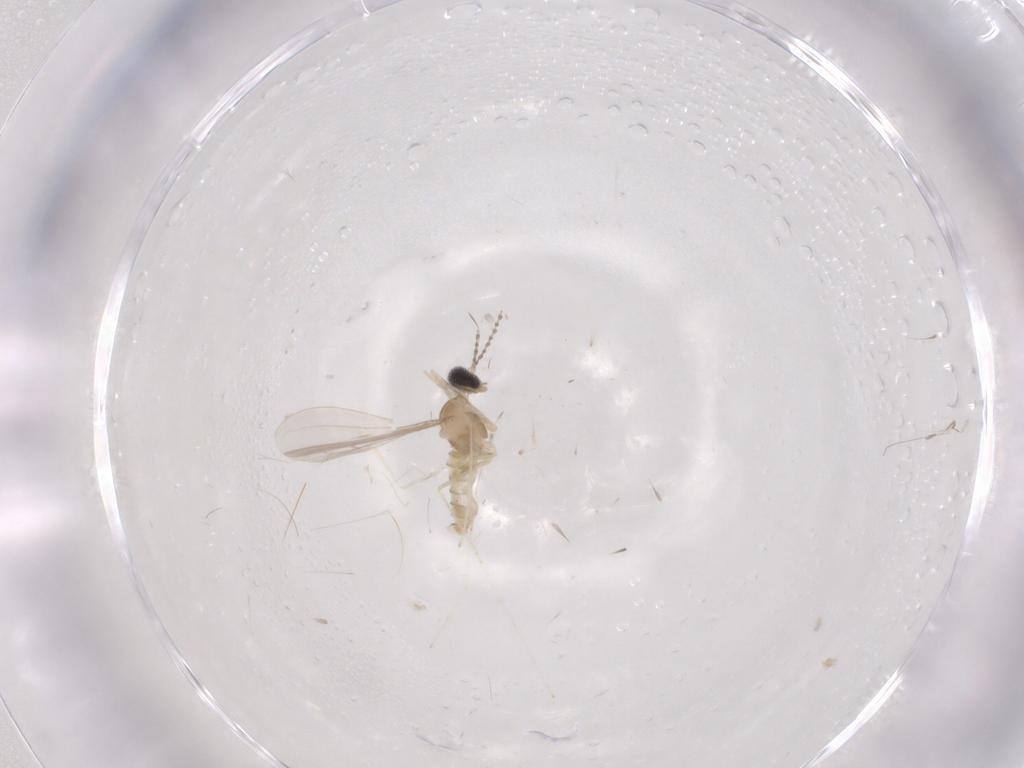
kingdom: Animalia
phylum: Arthropoda
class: Insecta
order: Diptera
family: Cecidomyiidae
